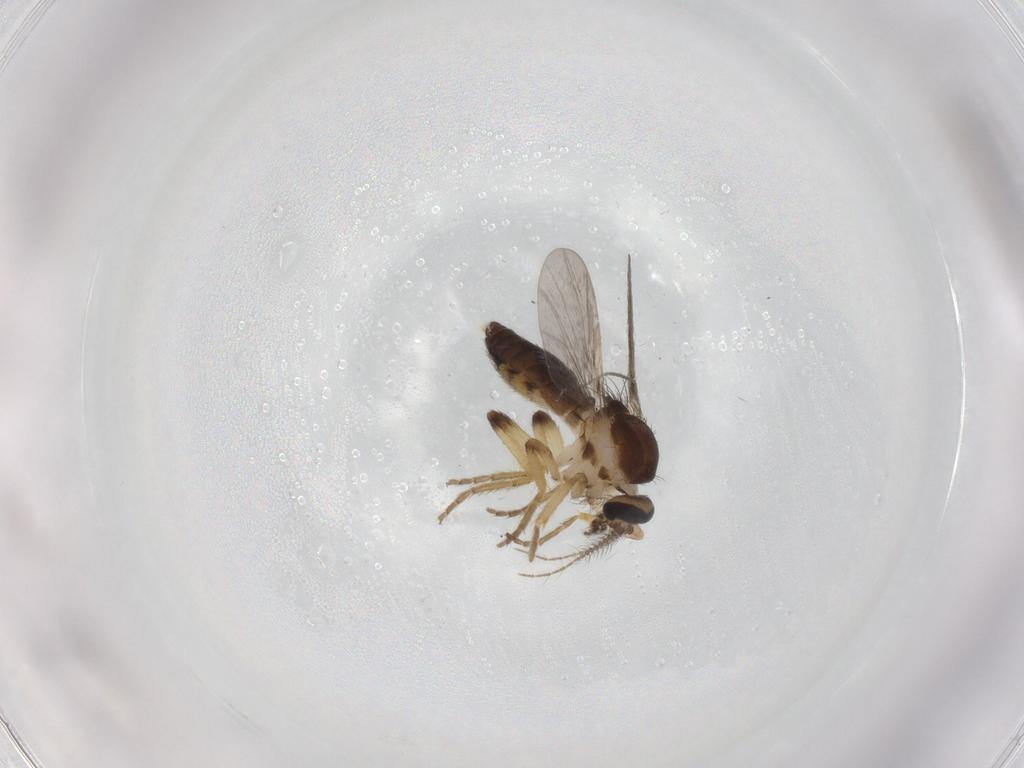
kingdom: Animalia
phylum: Arthropoda
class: Insecta
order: Diptera
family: Ceratopogonidae
